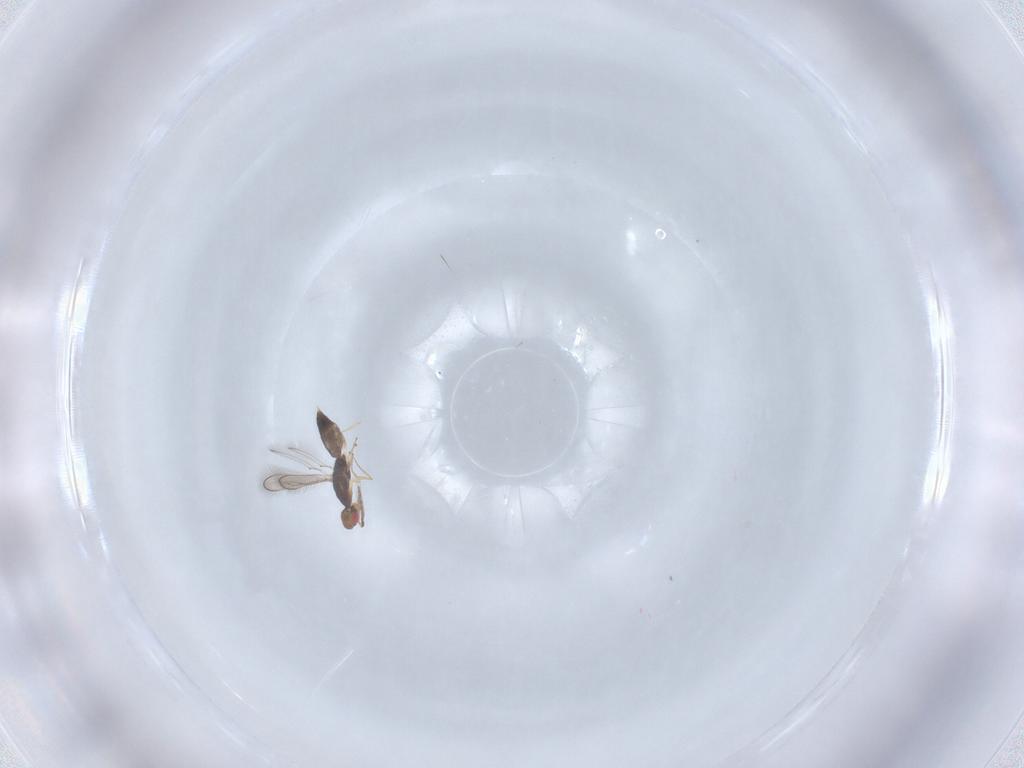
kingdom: Animalia
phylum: Arthropoda
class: Insecta
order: Hymenoptera
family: Eulophidae
